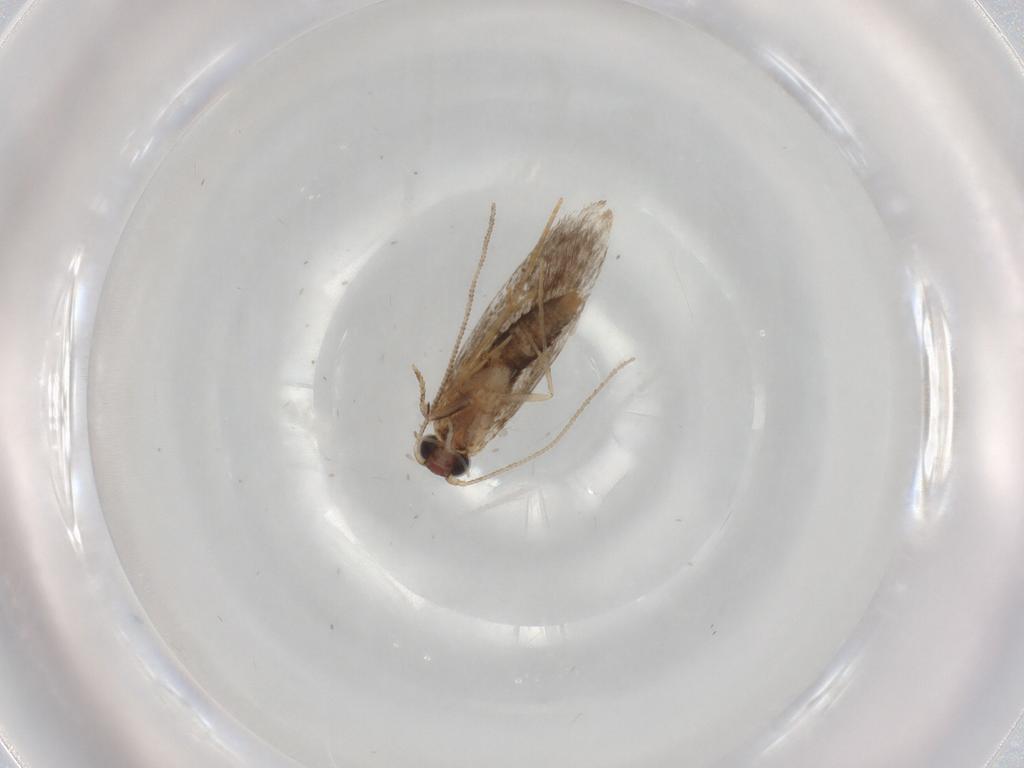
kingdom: Animalia
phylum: Arthropoda
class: Insecta
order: Lepidoptera
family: Tineidae
